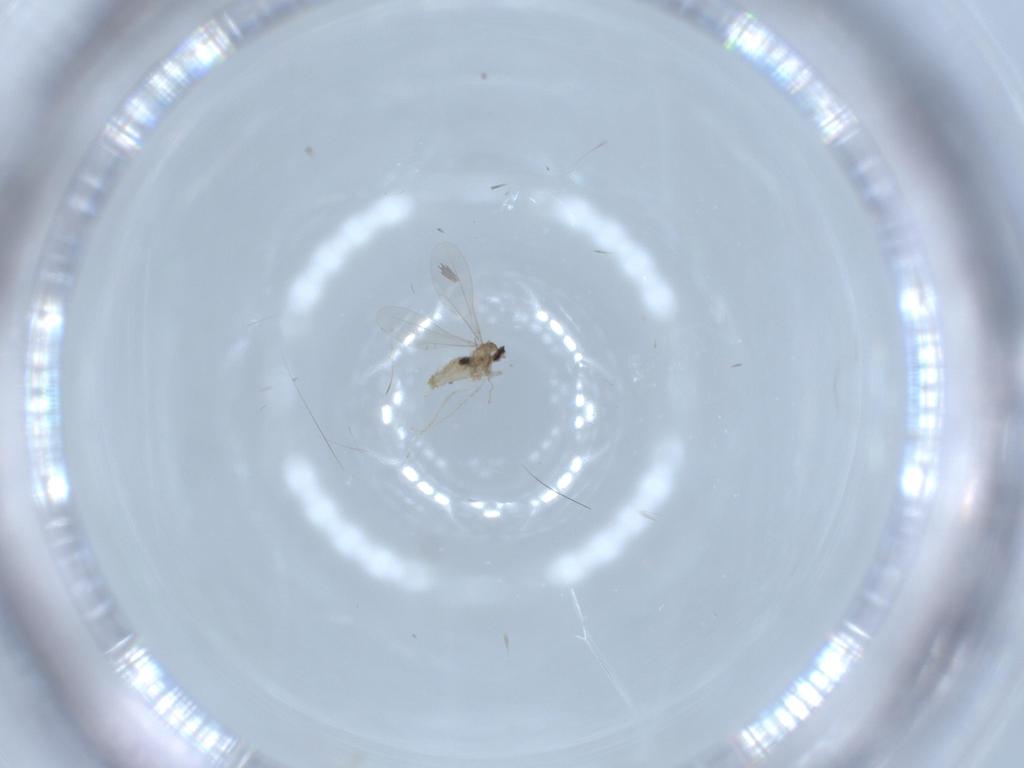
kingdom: Animalia
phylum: Arthropoda
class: Insecta
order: Diptera
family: Cecidomyiidae
